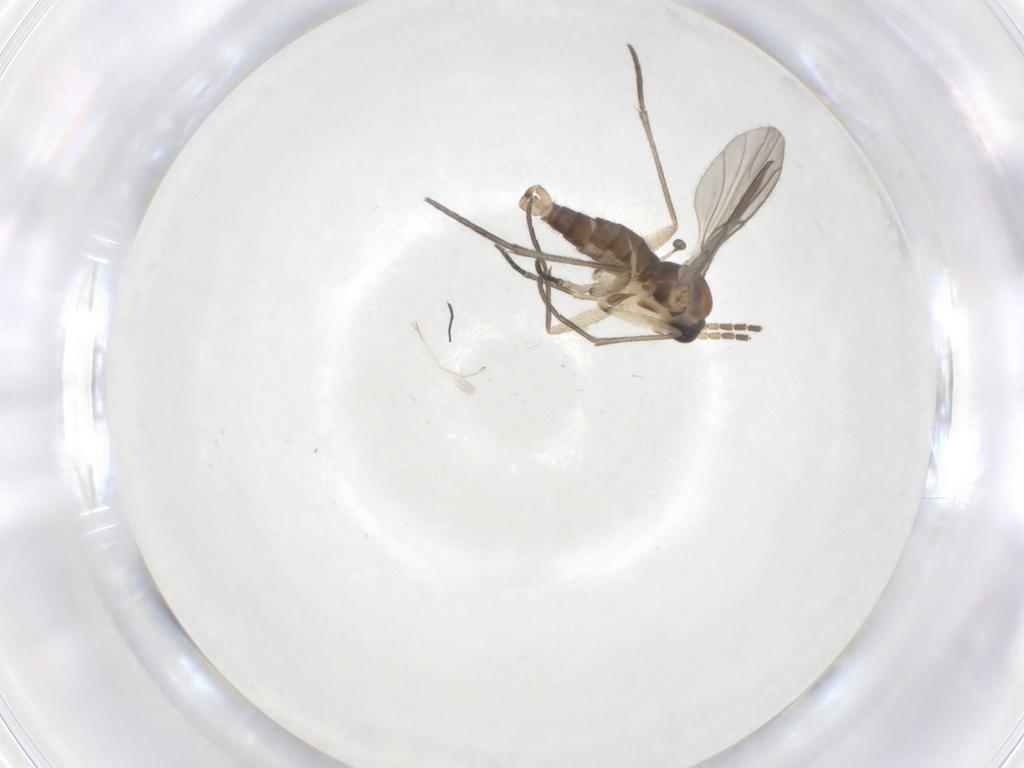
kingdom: Animalia
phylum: Arthropoda
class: Insecta
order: Diptera
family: Sciaridae
